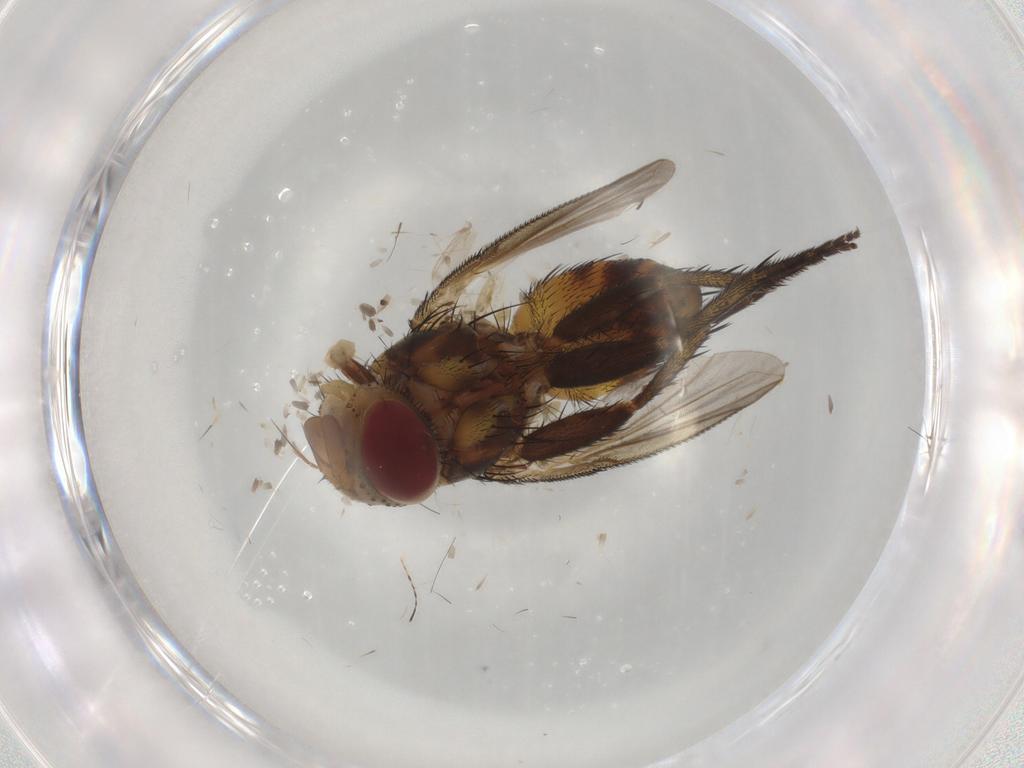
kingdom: Animalia
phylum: Arthropoda
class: Insecta
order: Diptera
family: Tachinidae
